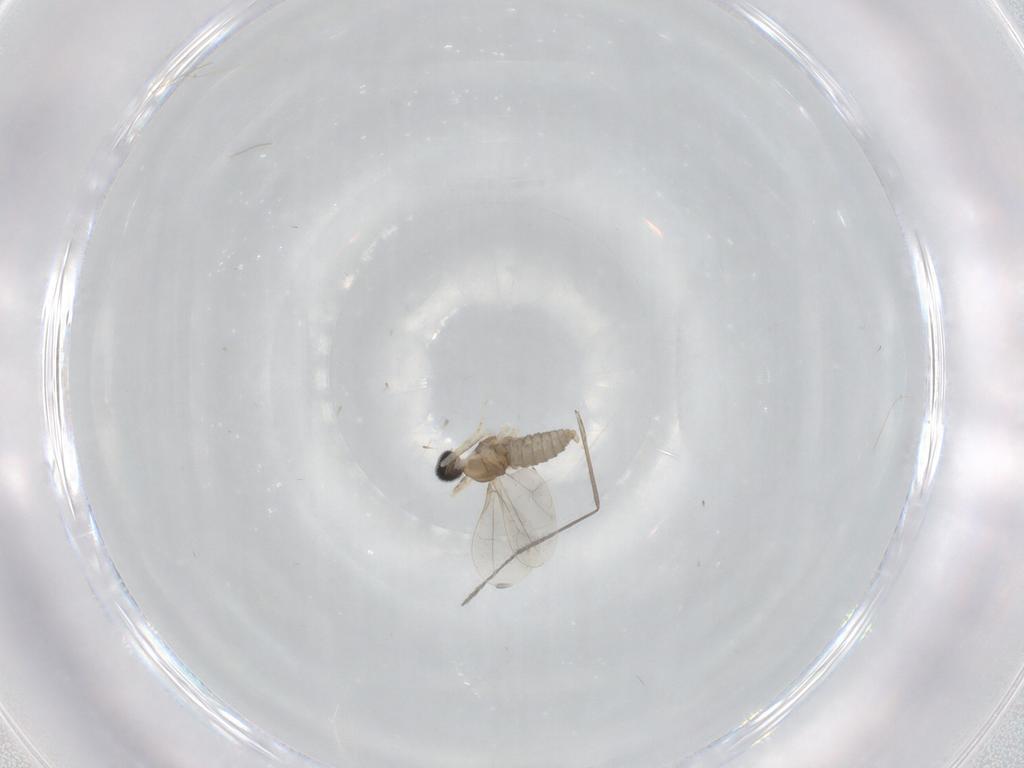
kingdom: Animalia
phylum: Arthropoda
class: Insecta
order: Diptera
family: Cecidomyiidae
